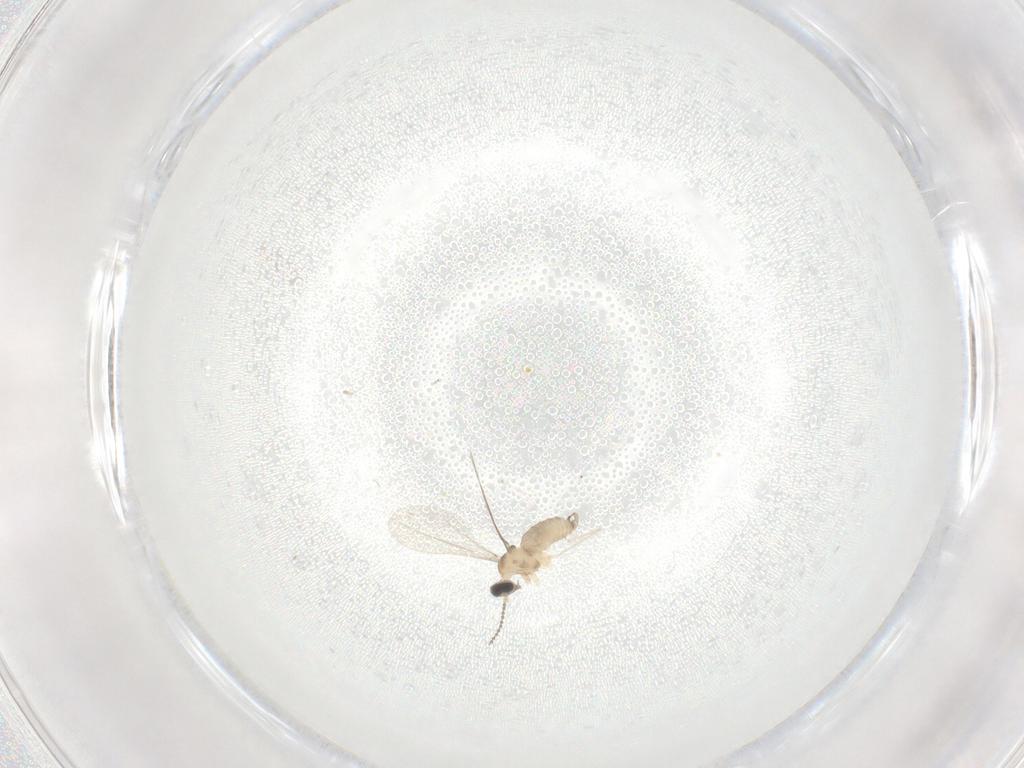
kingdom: Animalia
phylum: Arthropoda
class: Insecta
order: Diptera
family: Cecidomyiidae
